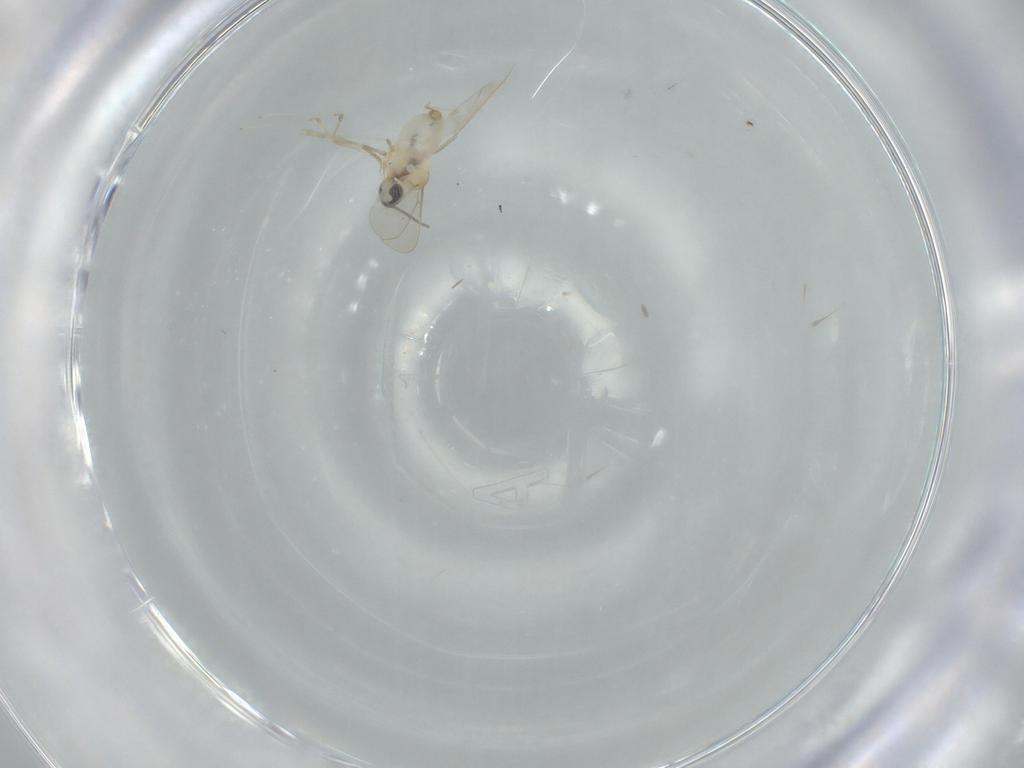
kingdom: Animalia
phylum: Arthropoda
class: Insecta
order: Diptera
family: Cecidomyiidae
